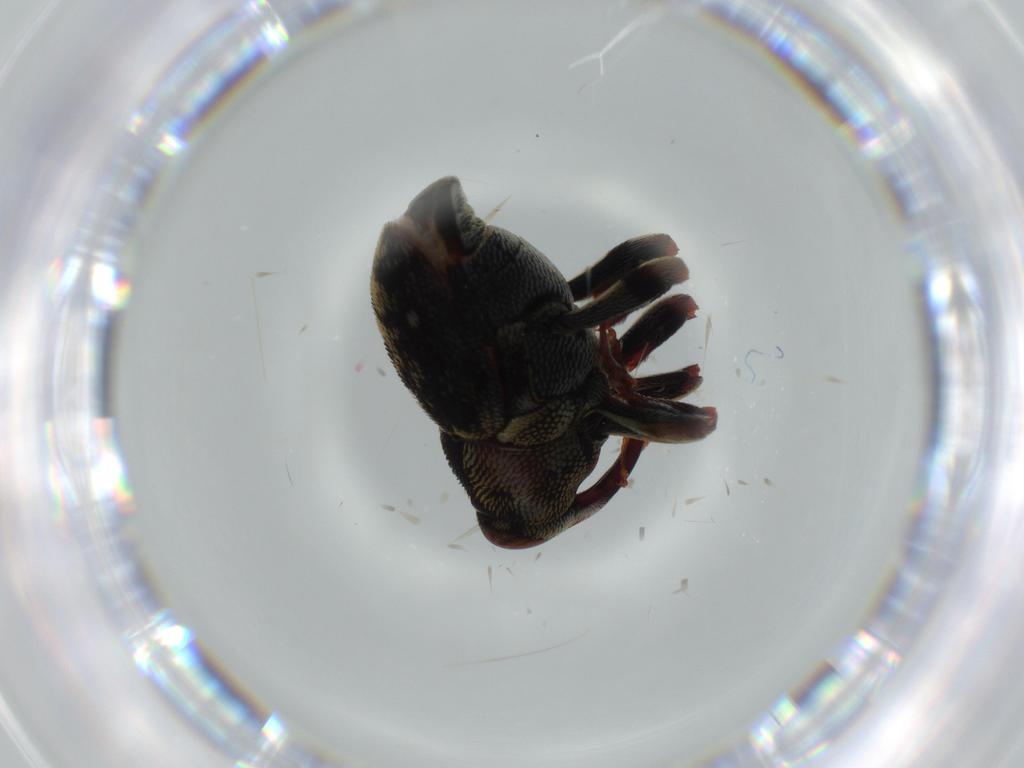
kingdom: Animalia
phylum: Arthropoda
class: Insecta
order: Coleoptera
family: Curculionidae
